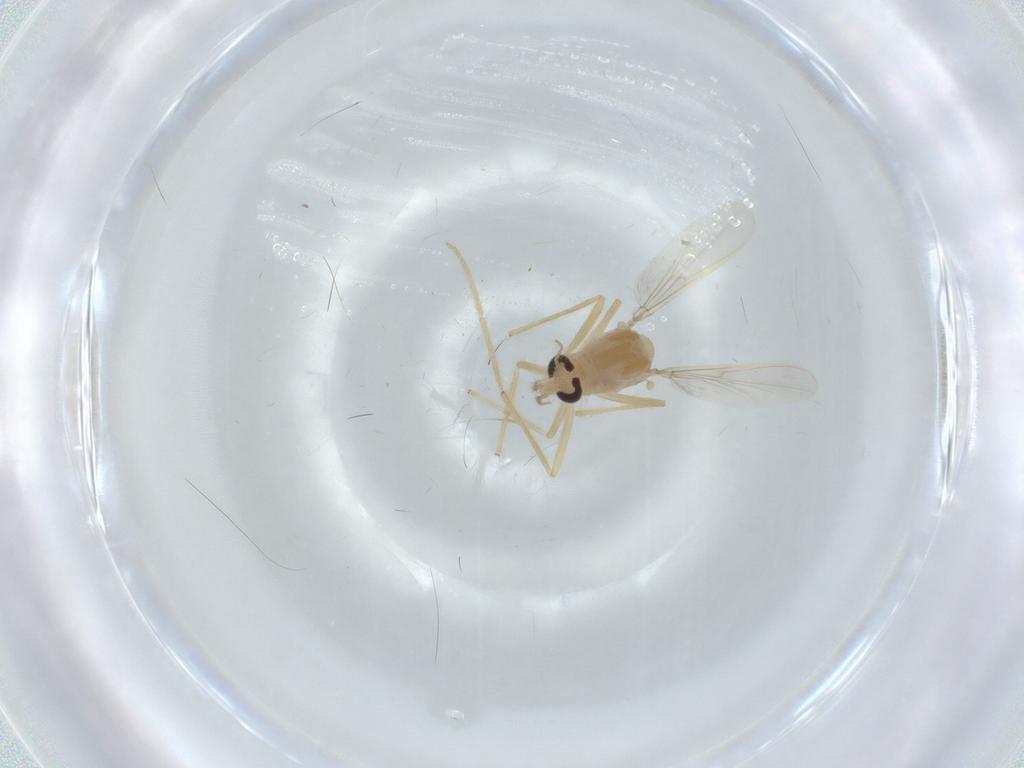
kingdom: Animalia
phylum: Arthropoda
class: Insecta
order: Diptera
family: Chironomidae
